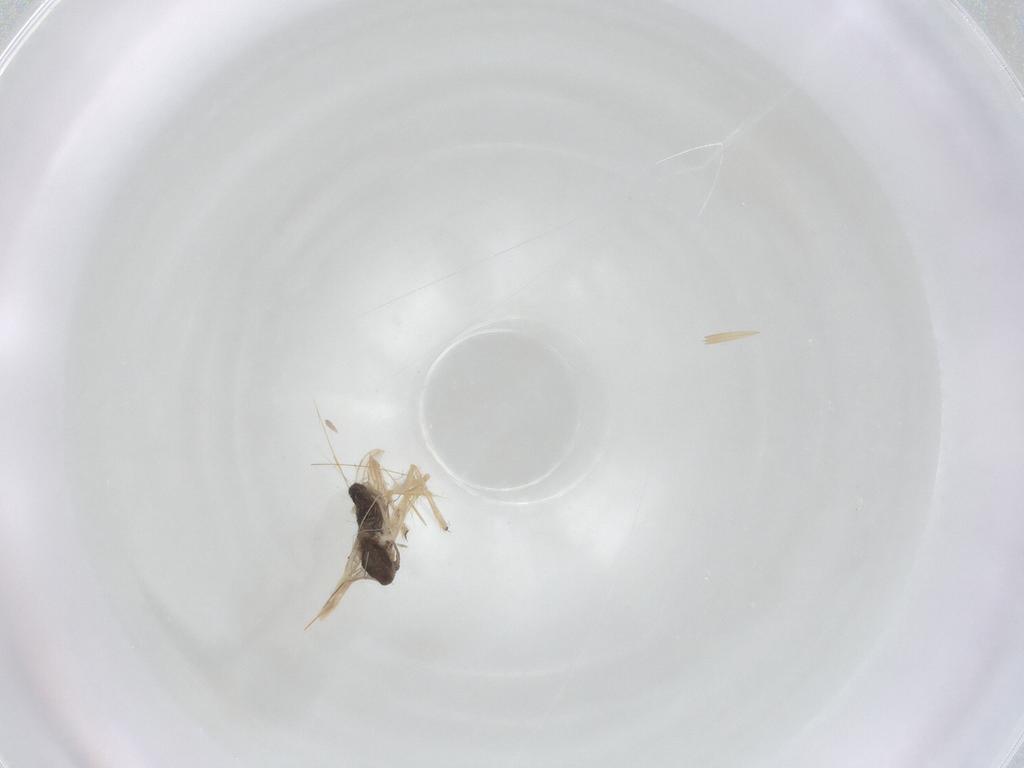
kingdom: Animalia
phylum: Arthropoda
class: Insecta
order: Diptera
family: Chironomidae
